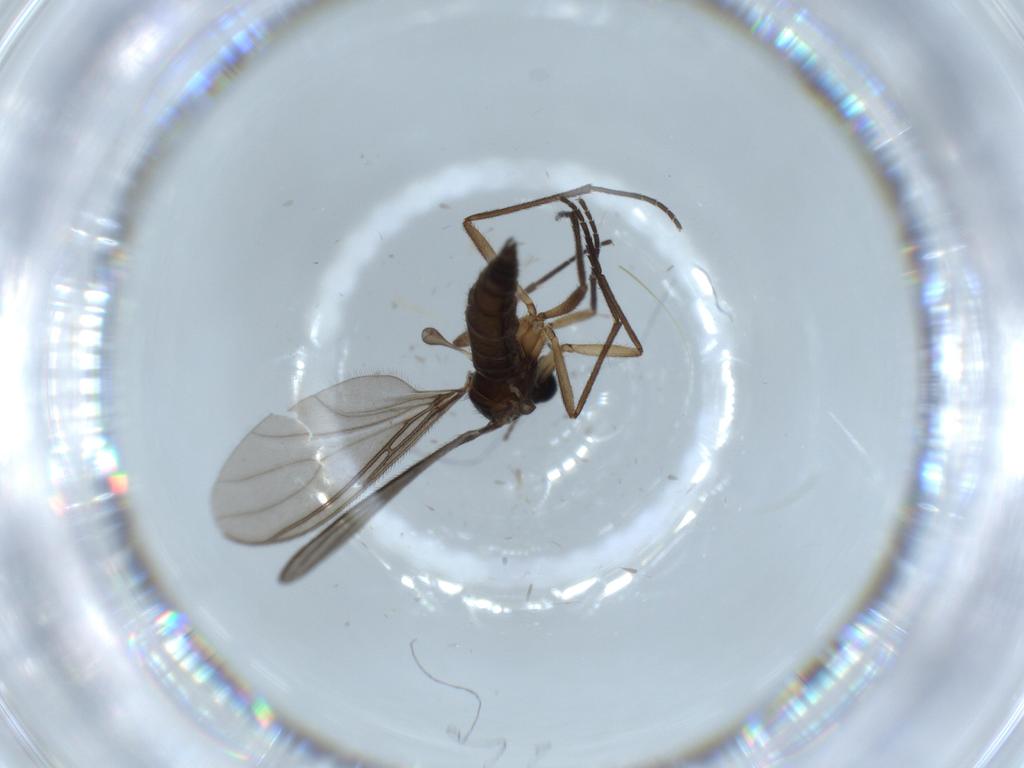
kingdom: Animalia
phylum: Arthropoda
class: Insecta
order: Diptera
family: Psychodidae
